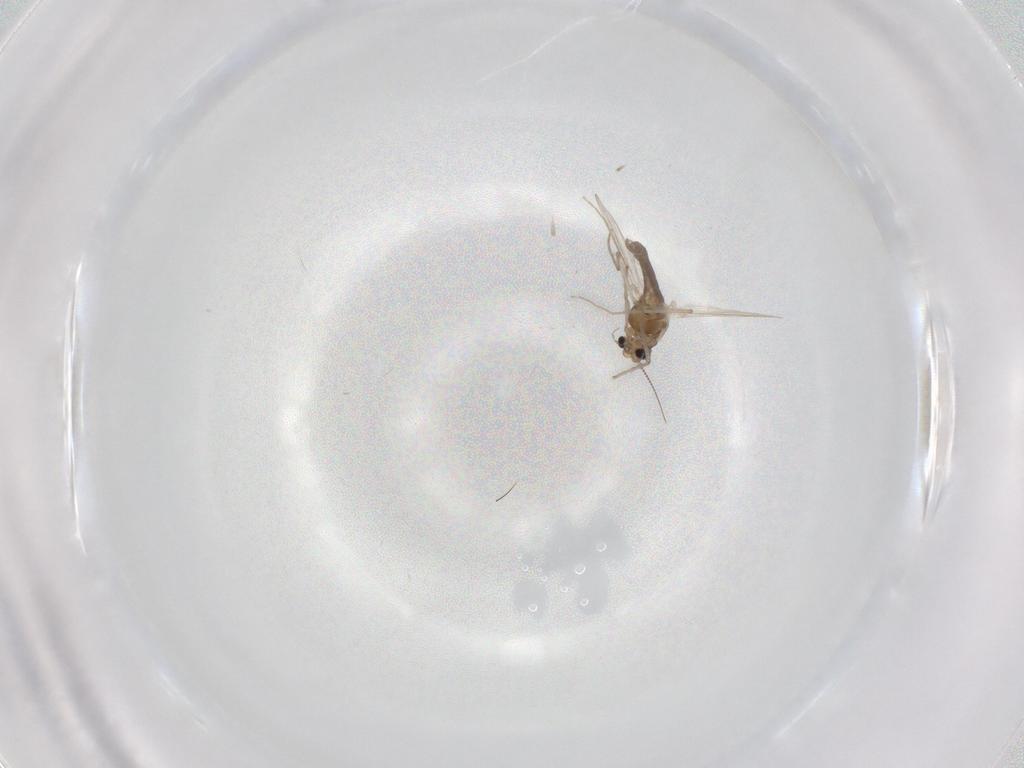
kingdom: Animalia
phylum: Arthropoda
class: Insecta
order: Diptera
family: Chironomidae
